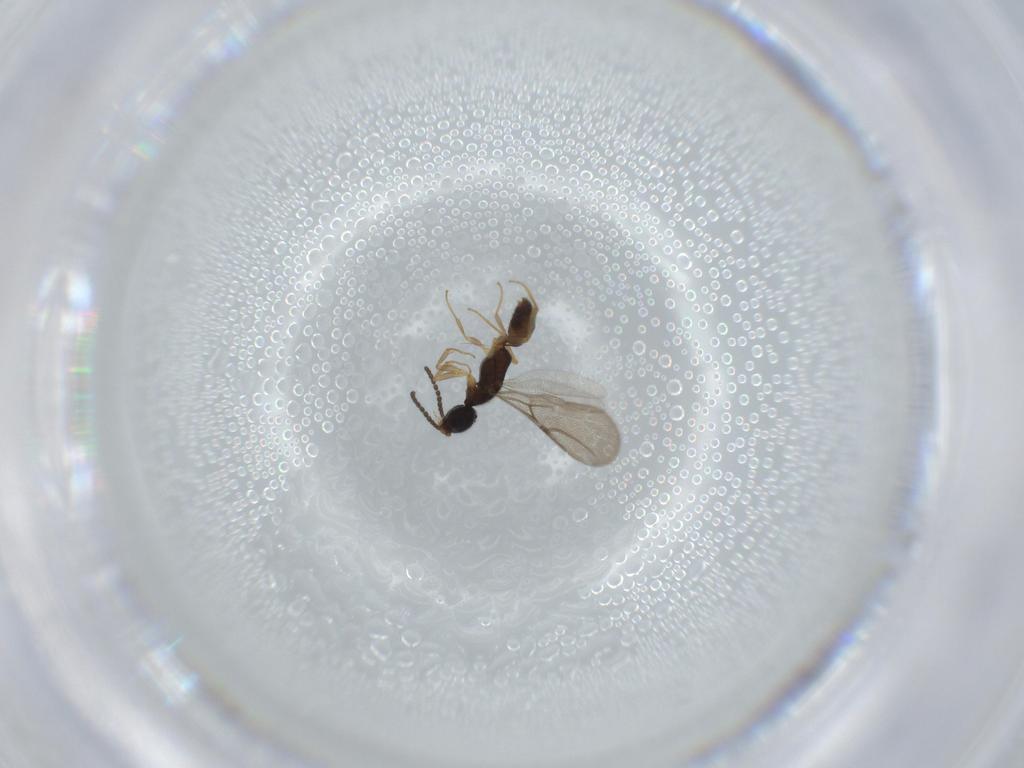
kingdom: Animalia
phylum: Arthropoda
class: Insecta
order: Hymenoptera
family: Bethylidae
